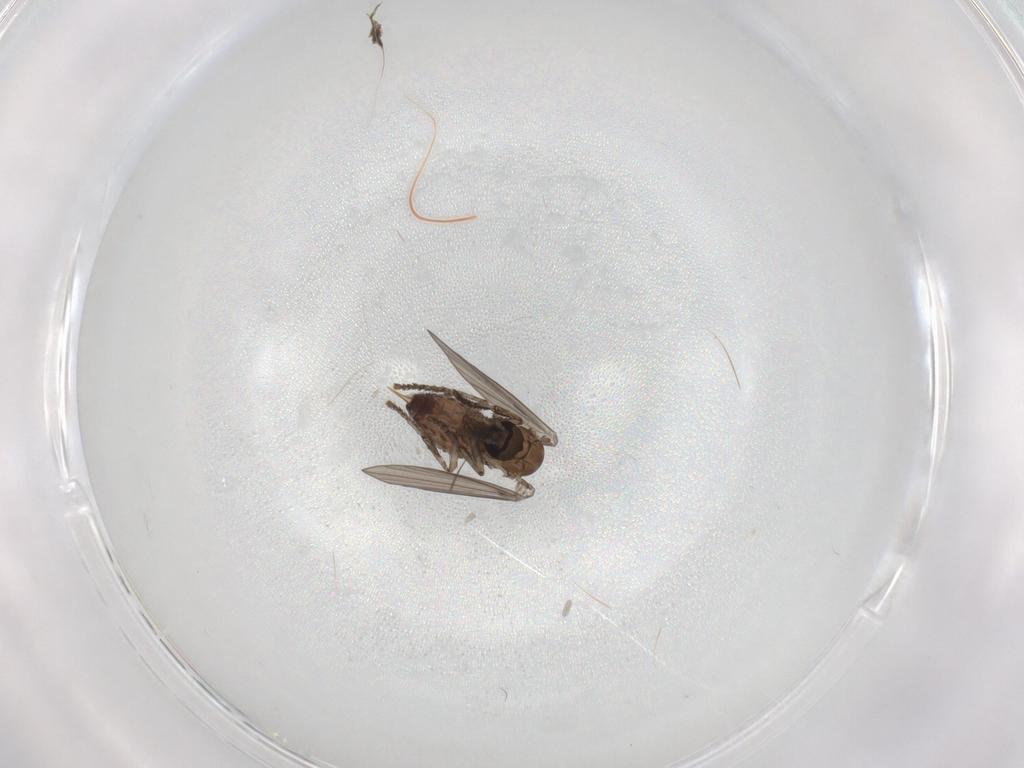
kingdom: Animalia
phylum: Arthropoda
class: Insecta
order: Diptera
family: Psychodidae
